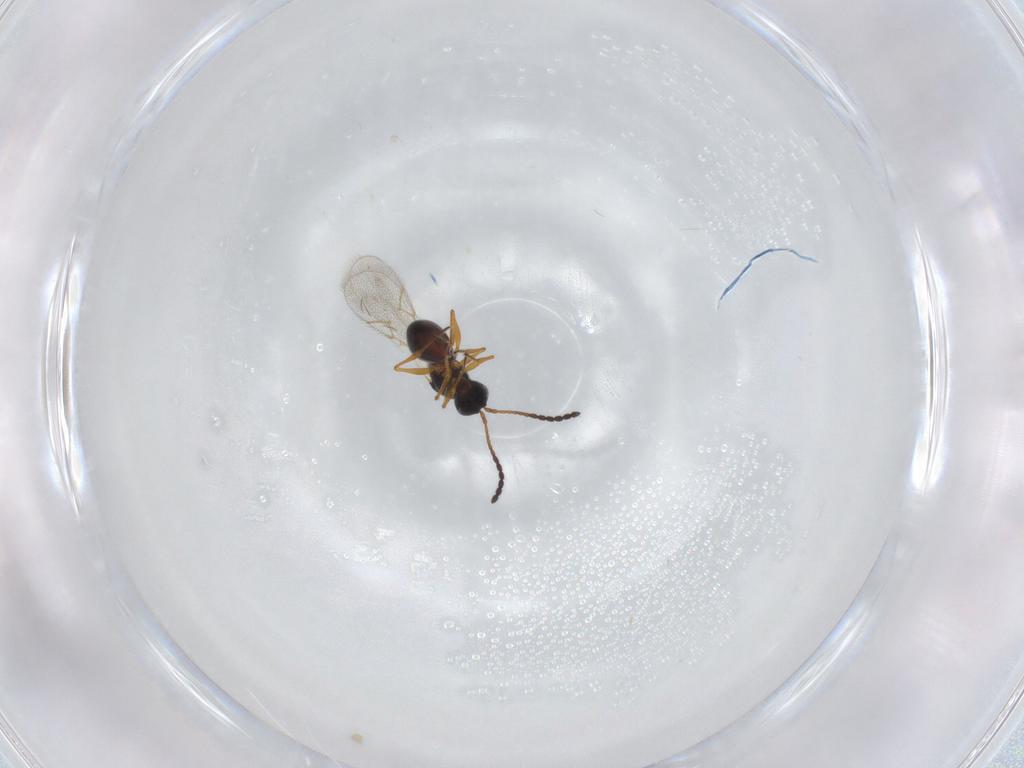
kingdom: Animalia
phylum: Arthropoda
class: Insecta
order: Hymenoptera
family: Figitidae
